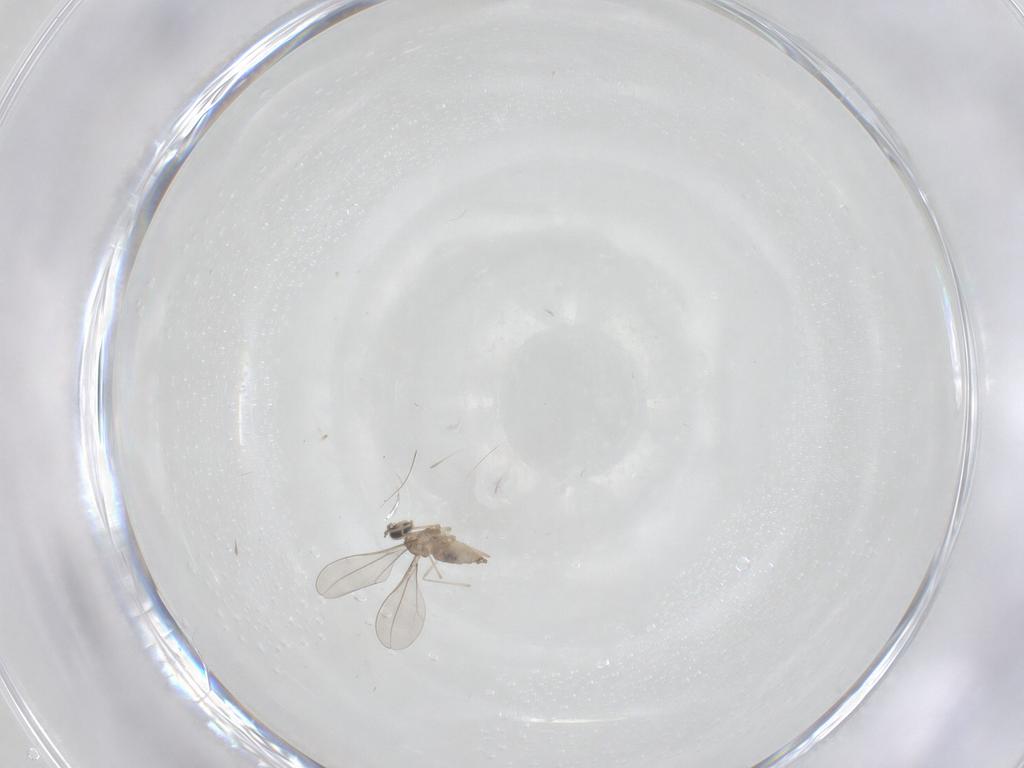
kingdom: Animalia
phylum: Arthropoda
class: Insecta
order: Diptera
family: Cecidomyiidae
